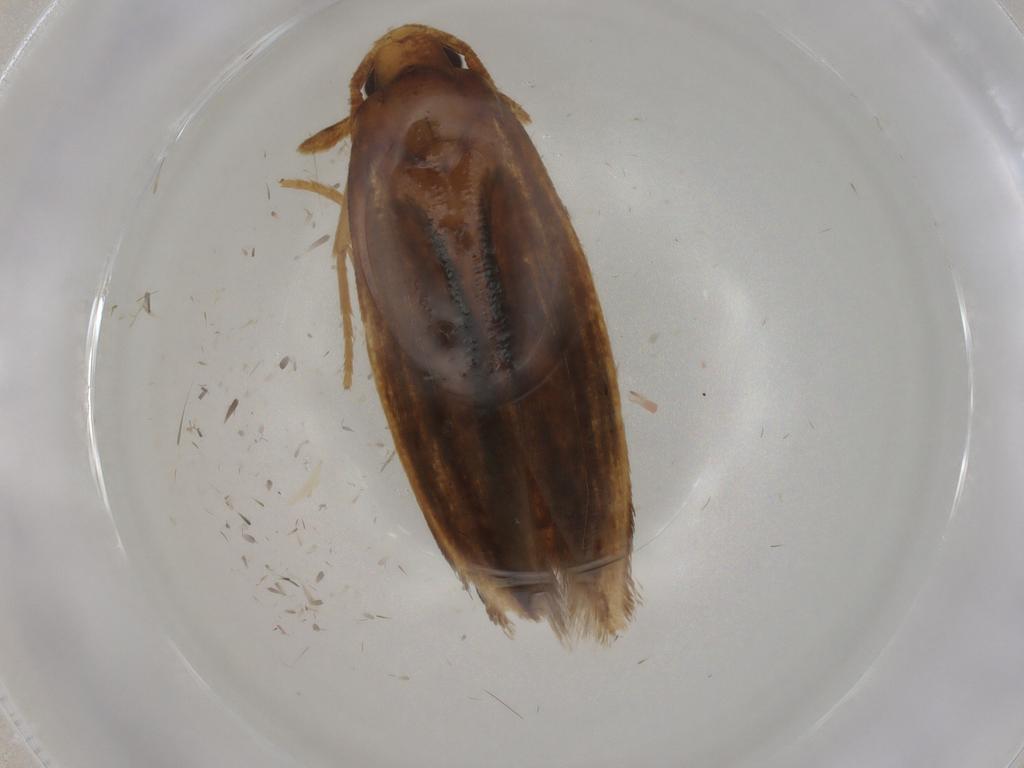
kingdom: Animalia
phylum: Arthropoda
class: Insecta
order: Lepidoptera
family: Tineidae
